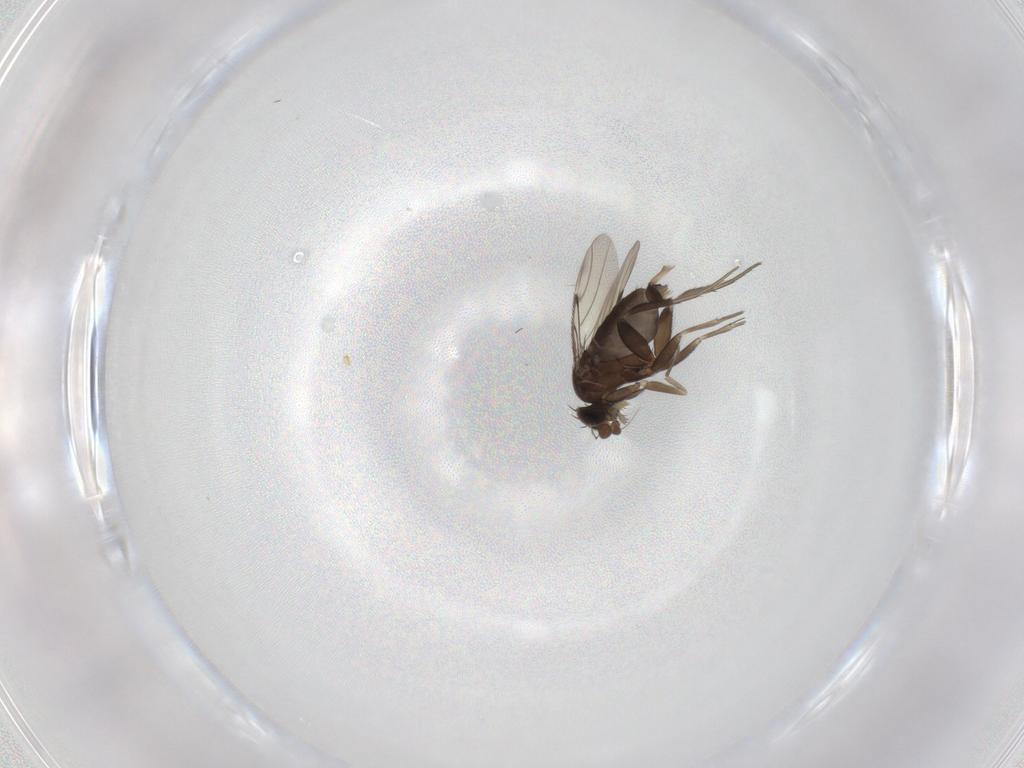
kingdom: Animalia
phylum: Arthropoda
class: Insecta
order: Diptera
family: Phoridae
